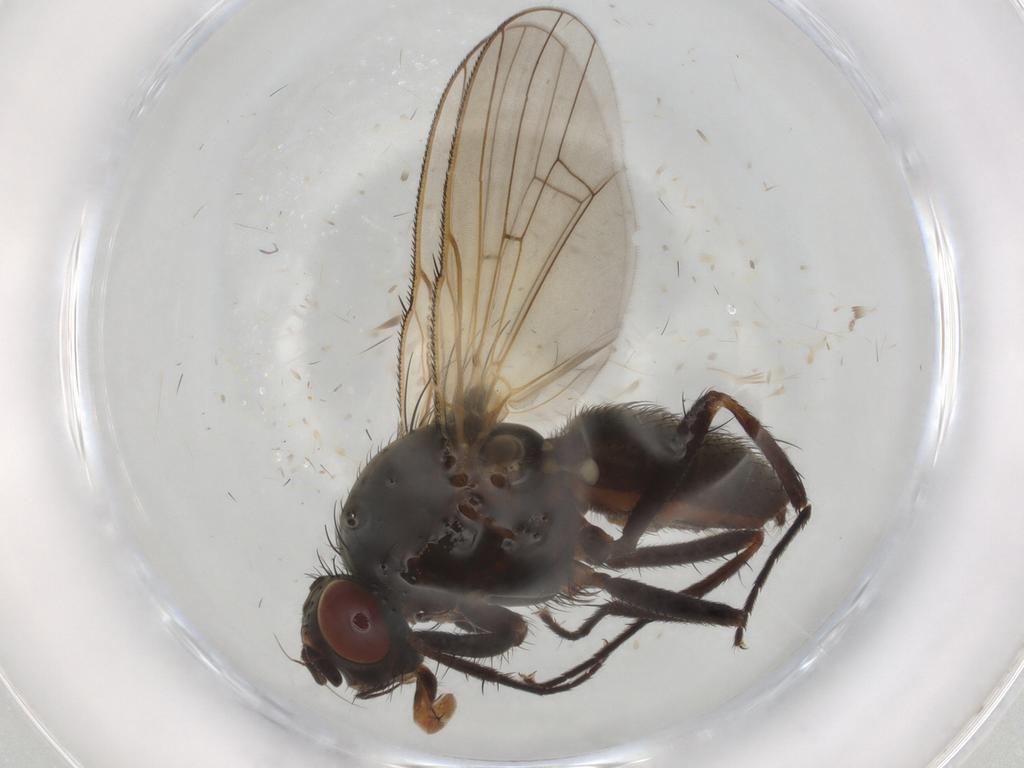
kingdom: Animalia
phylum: Arthropoda
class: Insecta
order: Diptera
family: Anthomyiidae
